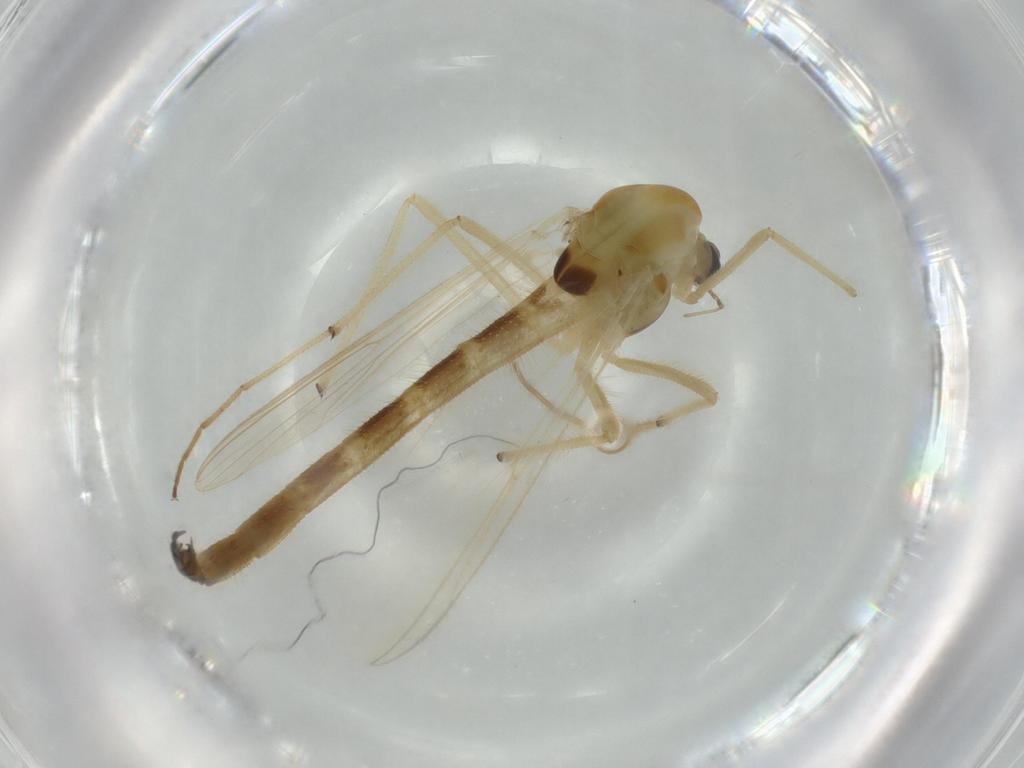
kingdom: Animalia
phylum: Arthropoda
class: Insecta
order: Diptera
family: Chironomidae
